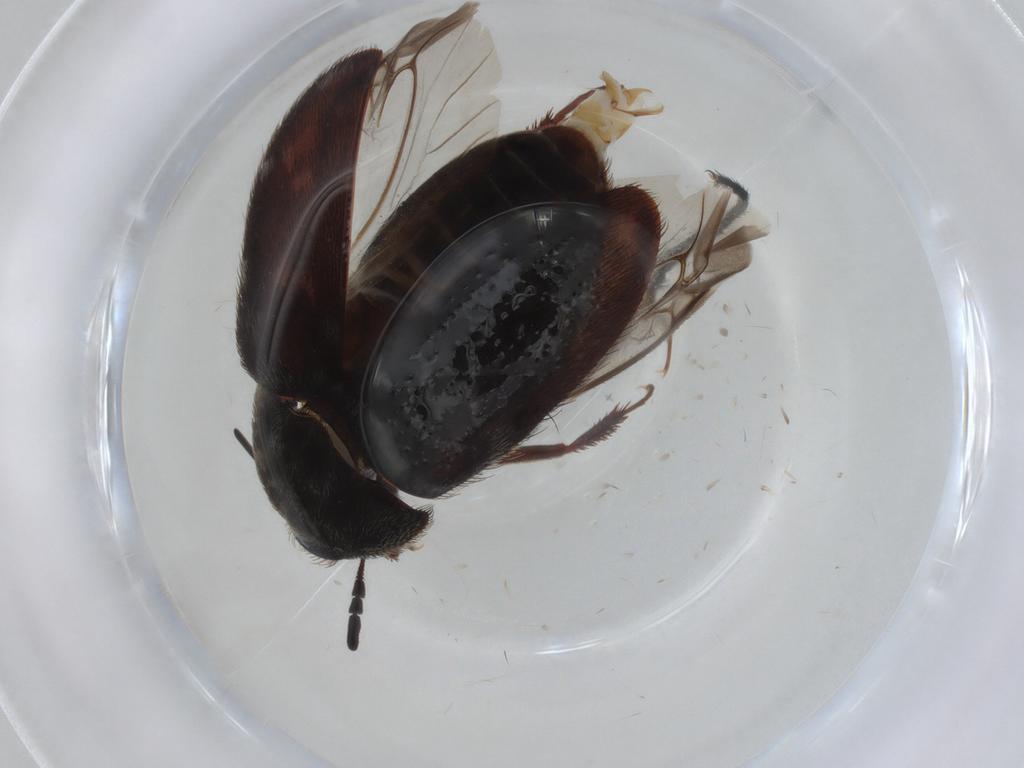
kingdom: Animalia
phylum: Arthropoda
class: Insecta
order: Coleoptera
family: Dermestidae
